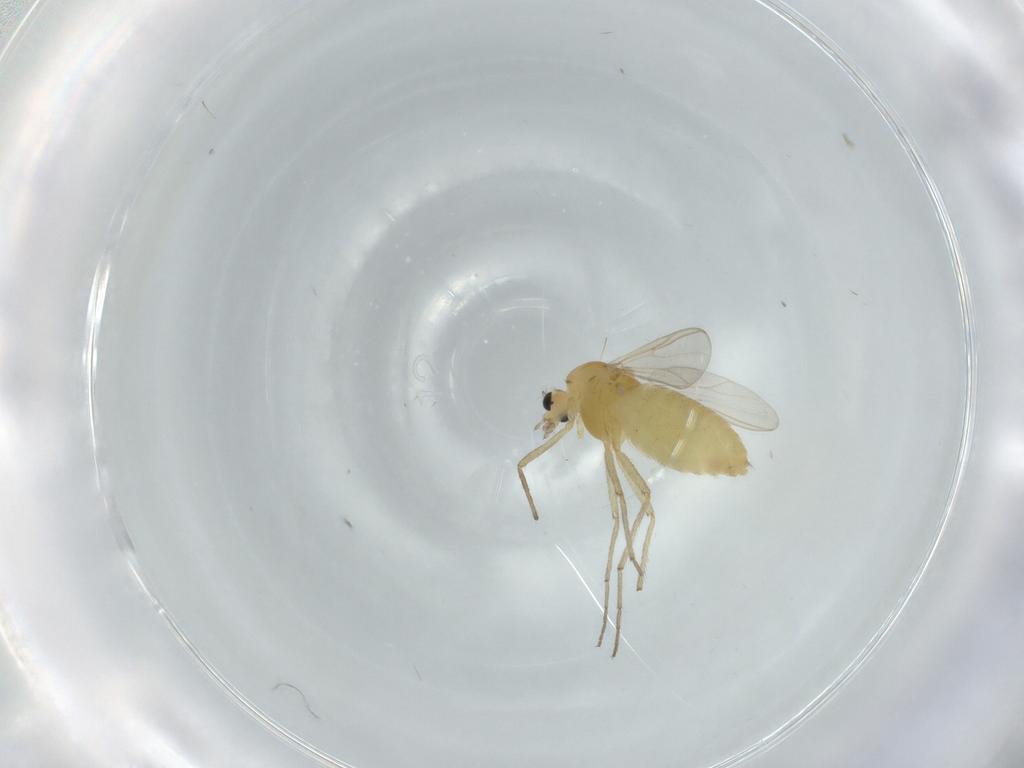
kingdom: Animalia
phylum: Arthropoda
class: Insecta
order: Diptera
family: Chironomidae
